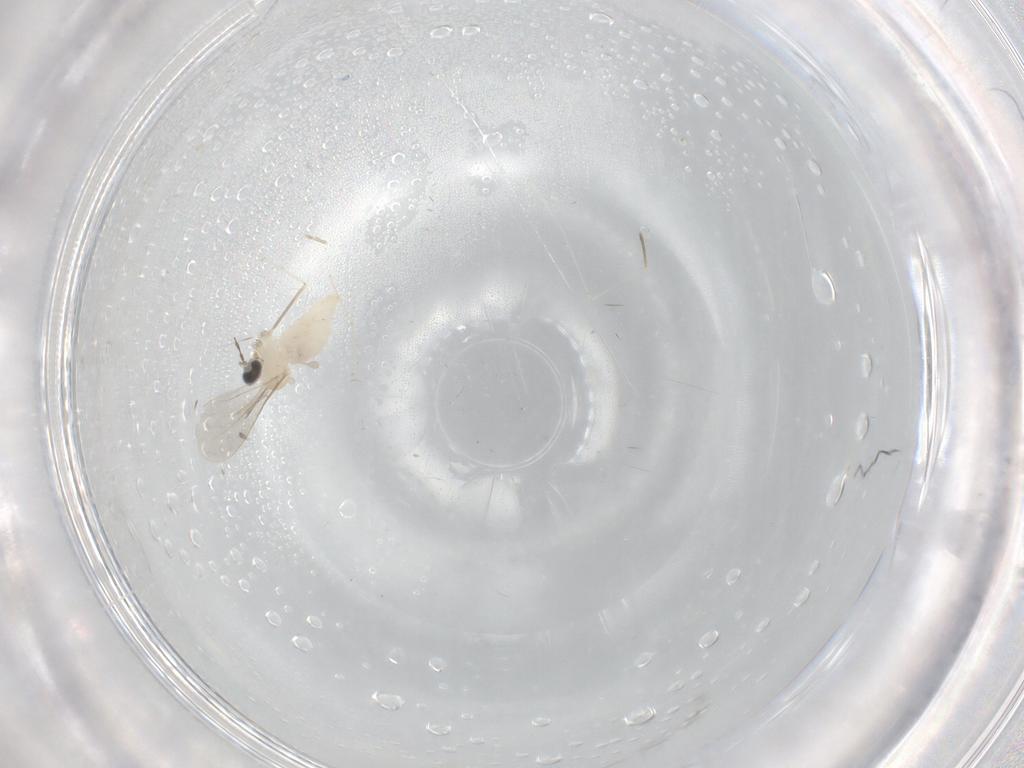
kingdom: Animalia
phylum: Arthropoda
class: Insecta
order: Diptera
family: Cecidomyiidae
